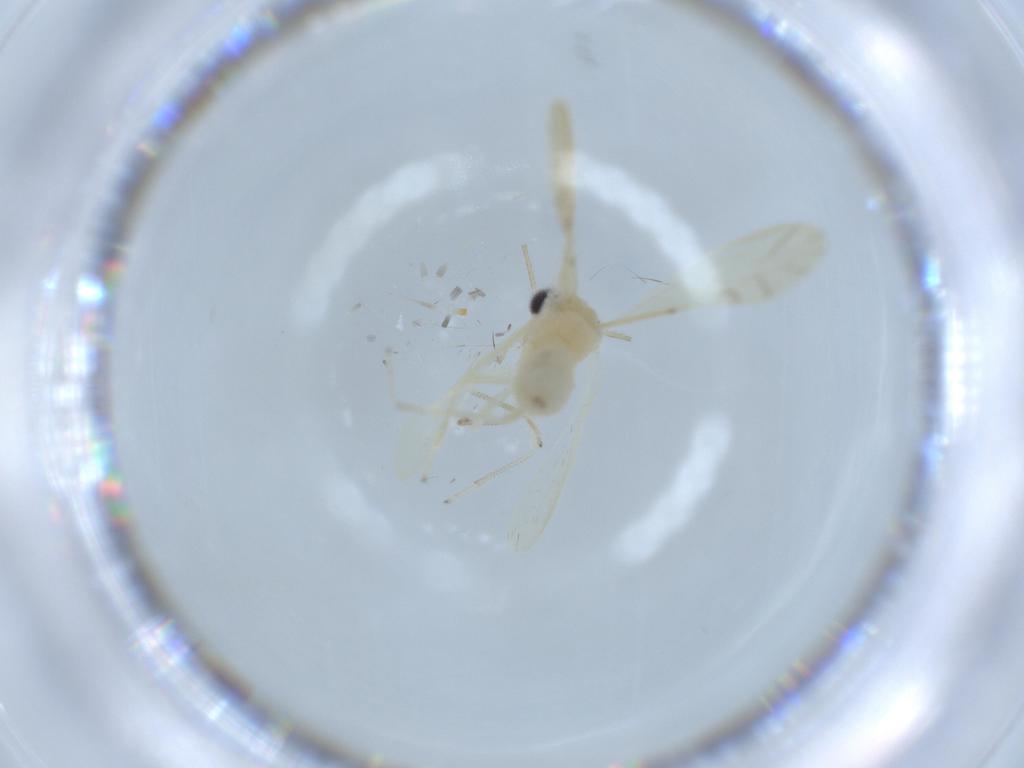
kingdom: Animalia
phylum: Arthropoda
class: Insecta
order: Psocodea
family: Caeciliusidae
